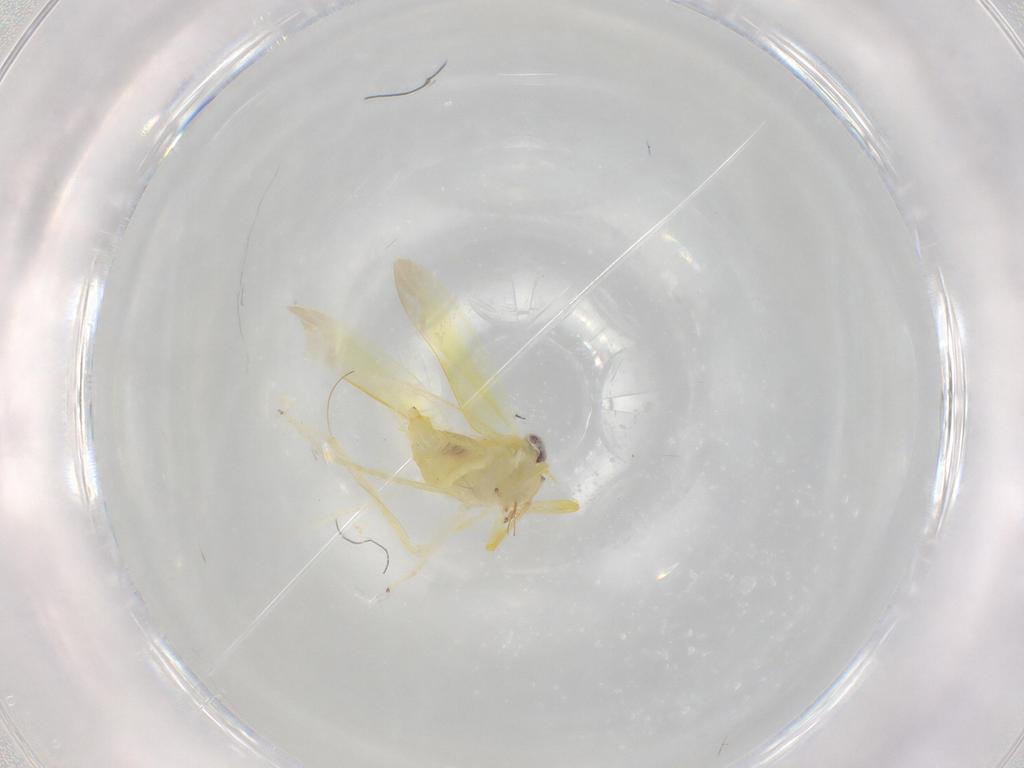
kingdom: Animalia
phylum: Arthropoda
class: Insecta
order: Hemiptera
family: Cicadellidae
